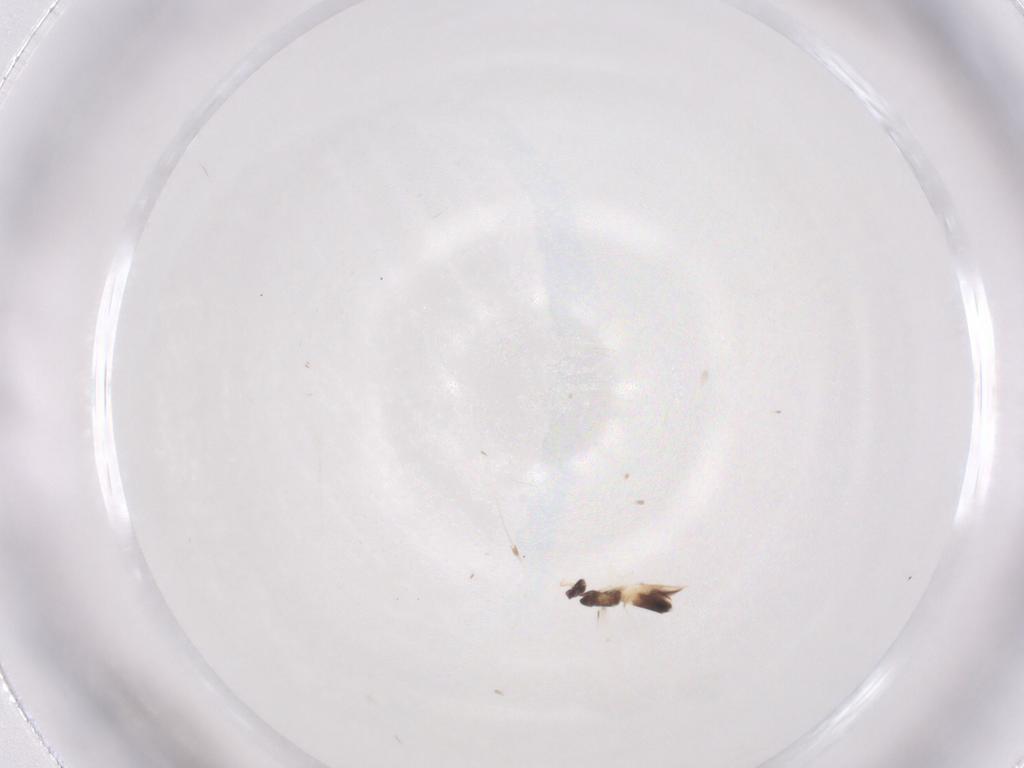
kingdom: Animalia
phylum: Arthropoda
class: Insecta
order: Hymenoptera
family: Mymaridae
